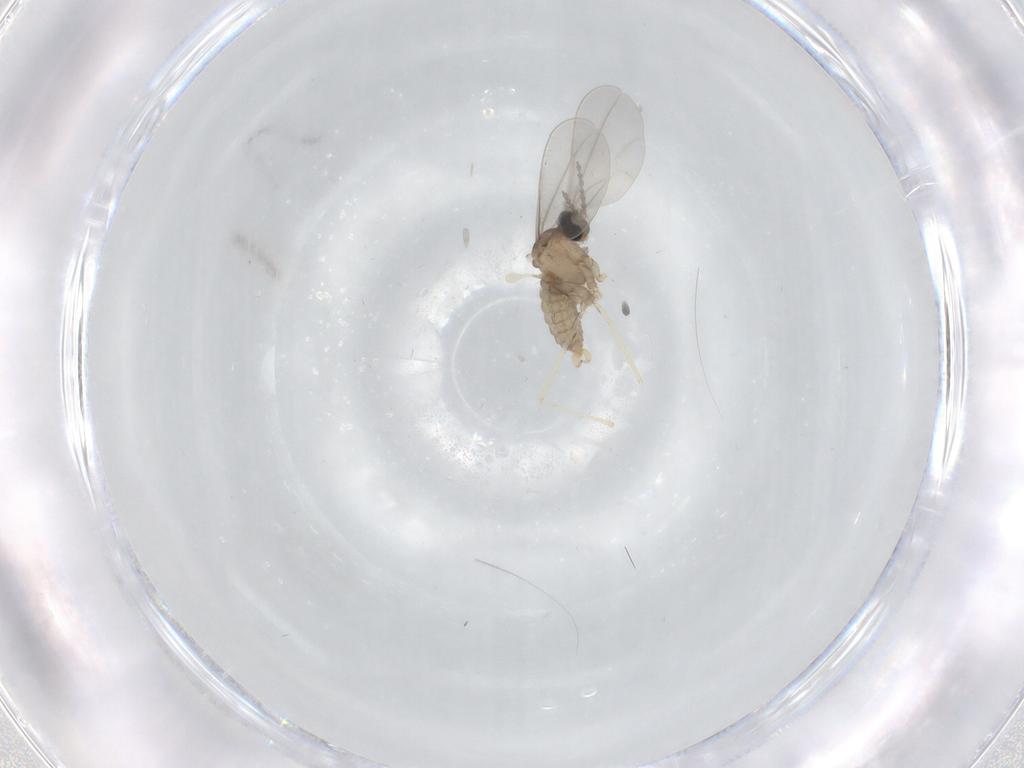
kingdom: Animalia
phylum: Arthropoda
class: Insecta
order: Diptera
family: Cecidomyiidae
